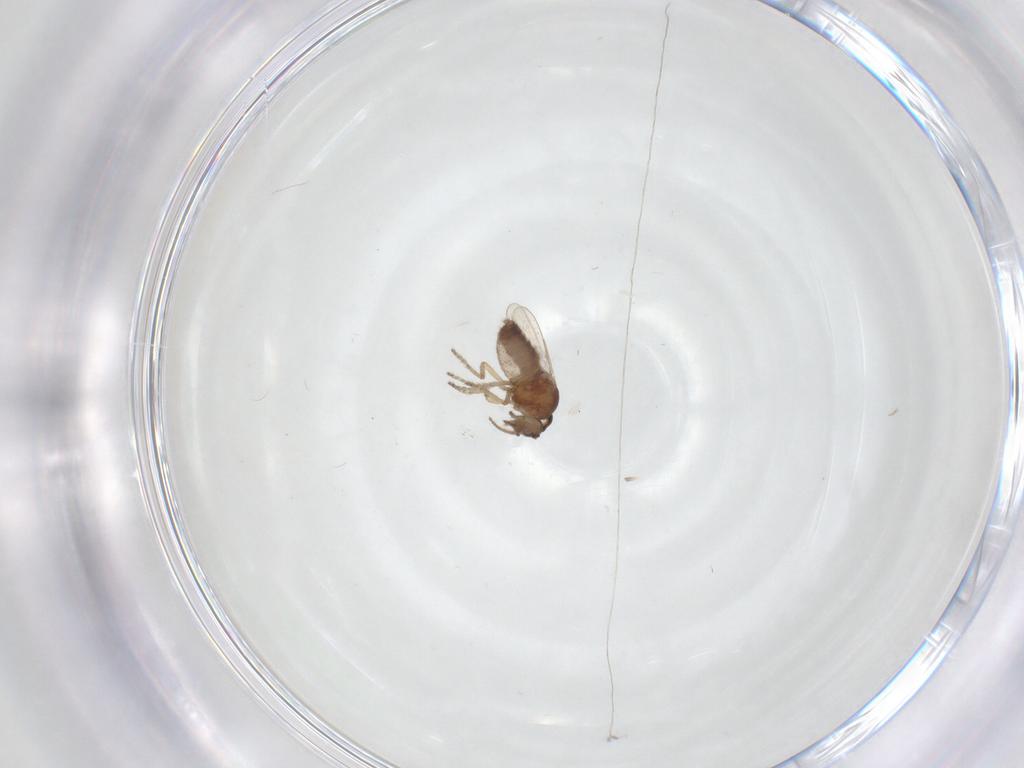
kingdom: Animalia
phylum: Arthropoda
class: Insecta
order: Diptera
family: Ceratopogonidae
